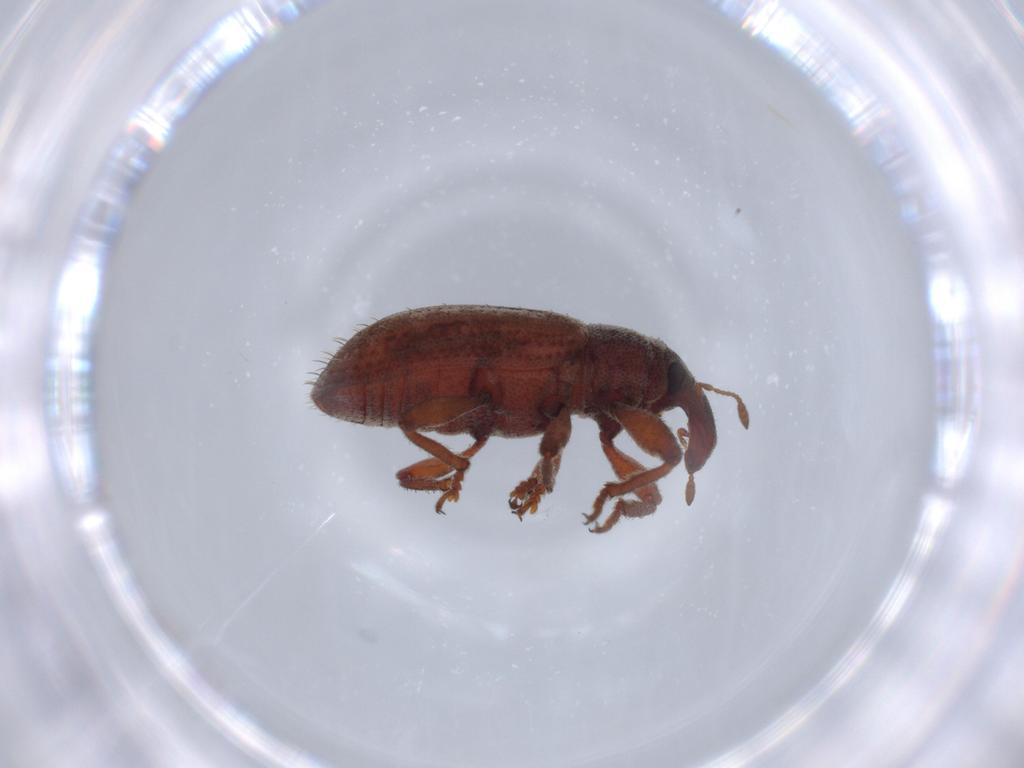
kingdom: Animalia
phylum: Arthropoda
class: Insecta
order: Coleoptera
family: Curculionidae
